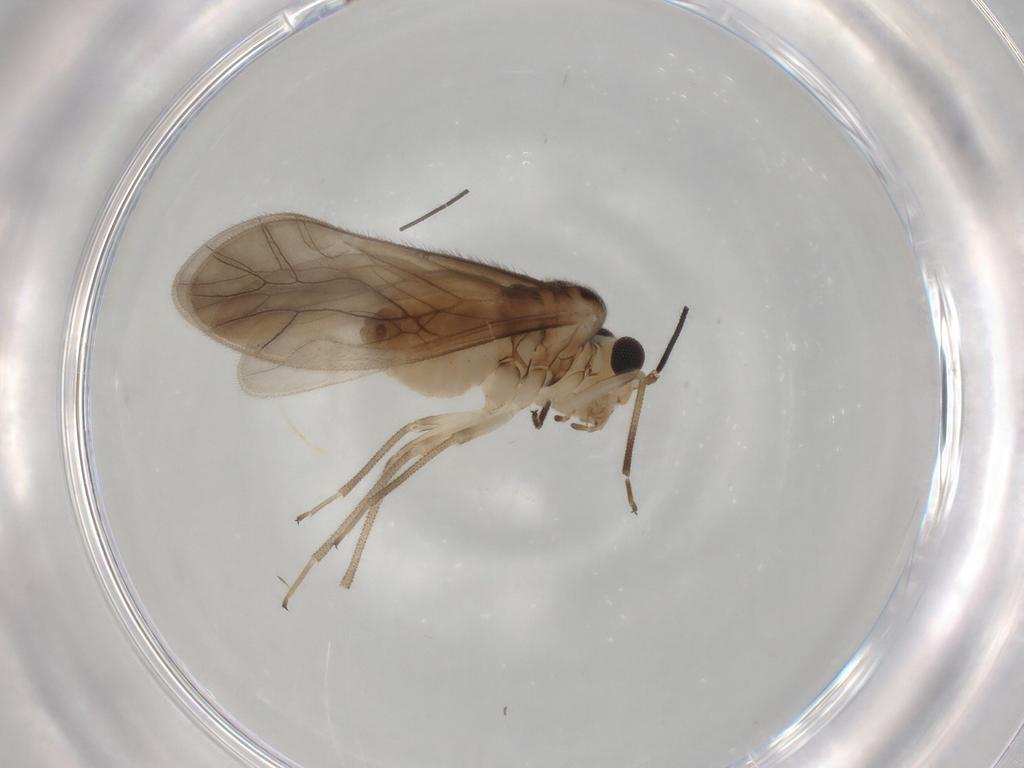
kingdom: Animalia
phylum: Arthropoda
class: Insecta
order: Psocodea
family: Caeciliusidae
